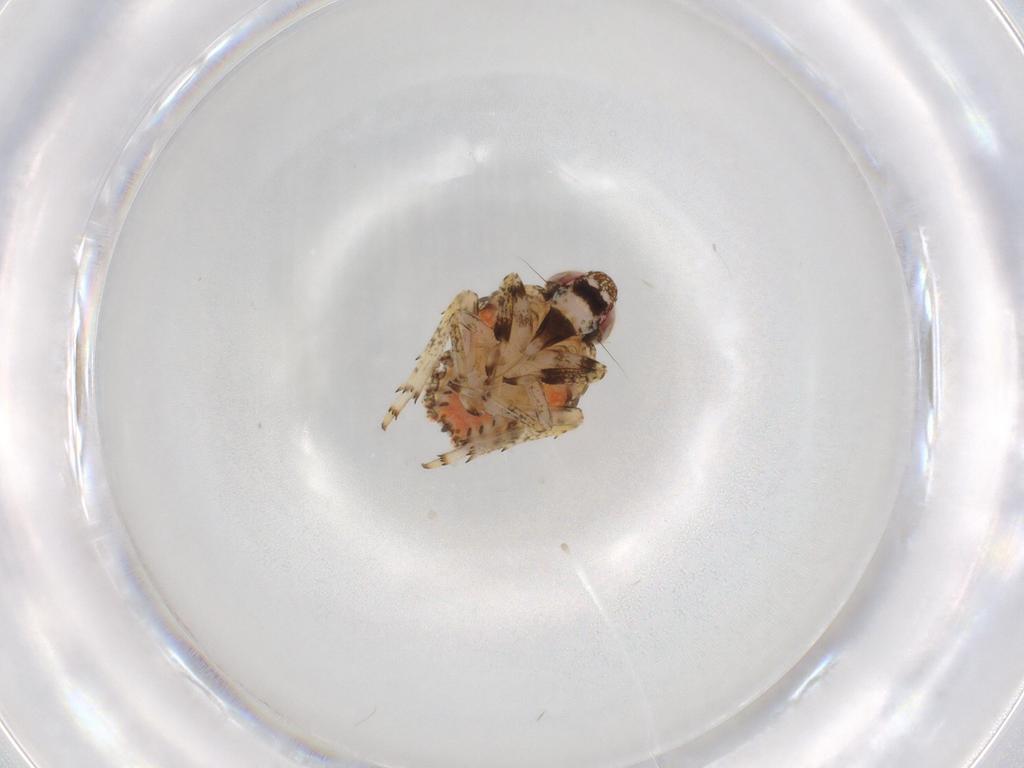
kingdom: Animalia
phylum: Arthropoda
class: Insecta
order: Hemiptera
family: Issidae
